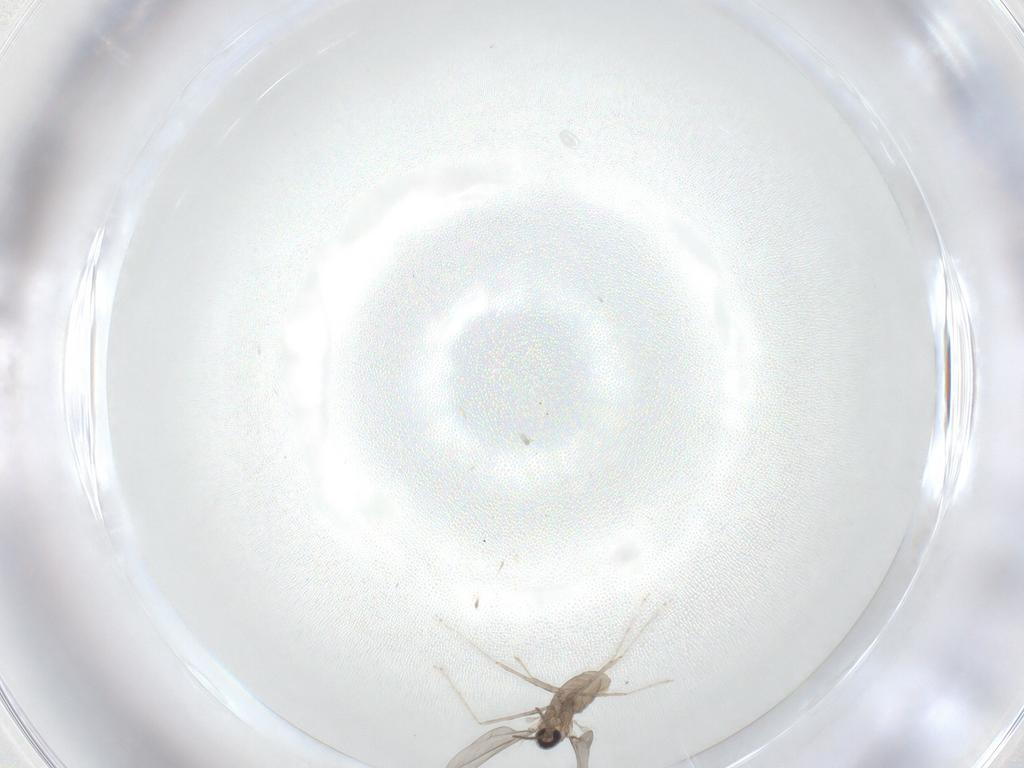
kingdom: Animalia
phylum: Arthropoda
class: Insecta
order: Diptera
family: Cecidomyiidae
